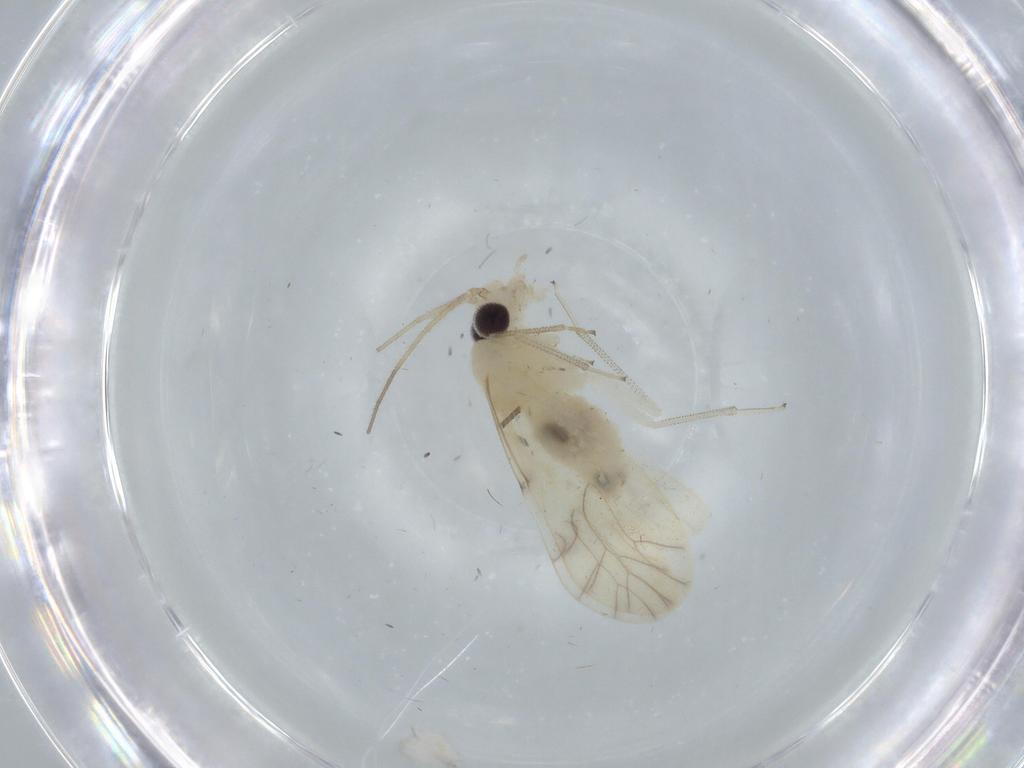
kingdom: Animalia
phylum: Arthropoda
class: Insecta
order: Psocodea
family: Caeciliusidae
